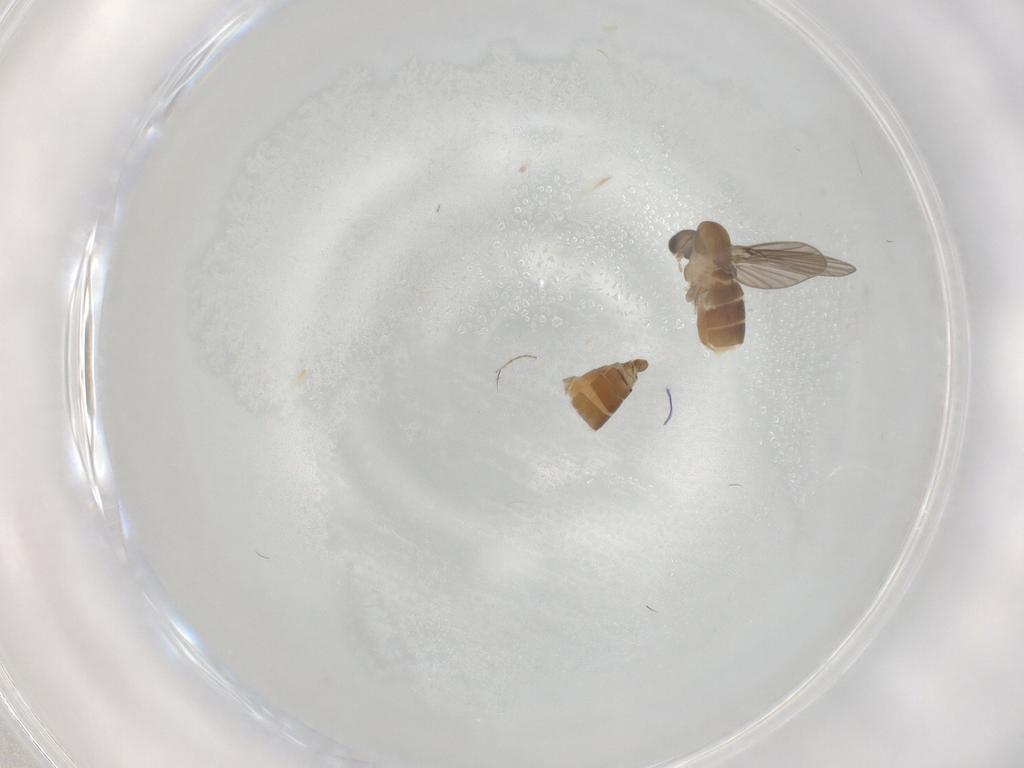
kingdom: Animalia
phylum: Arthropoda
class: Insecta
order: Diptera
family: Psychodidae
